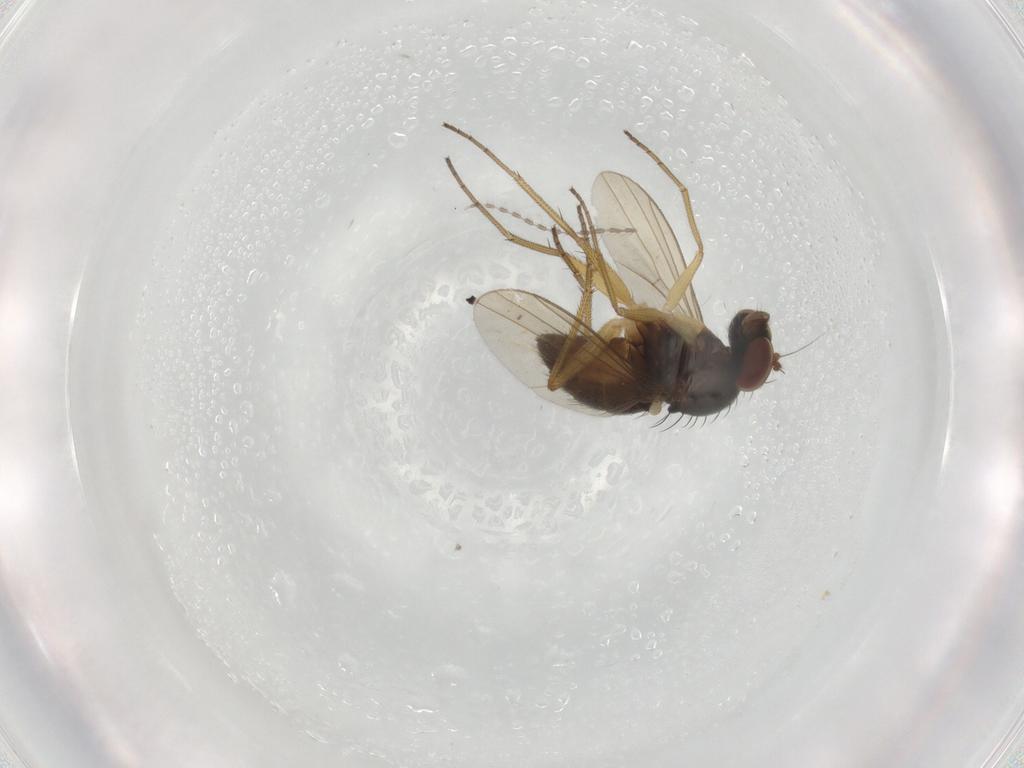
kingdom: Animalia
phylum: Arthropoda
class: Insecta
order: Diptera
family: Dolichopodidae
